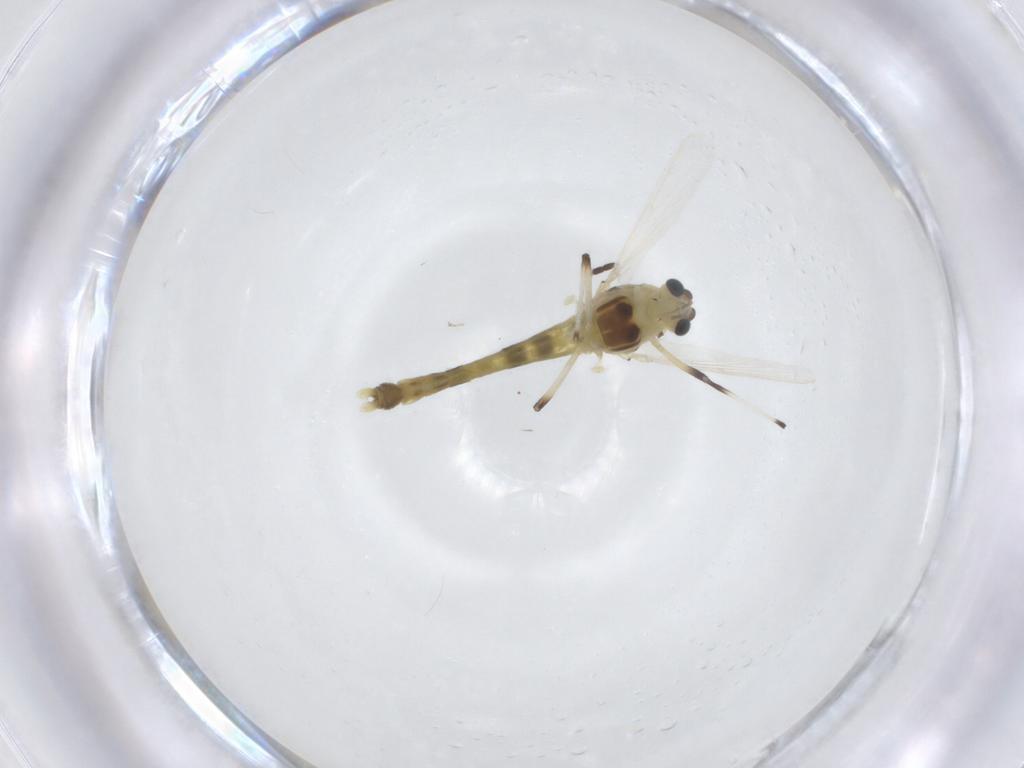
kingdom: Animalia
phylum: Arthropoda
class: Insecta
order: Diptera
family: Chironomidae
